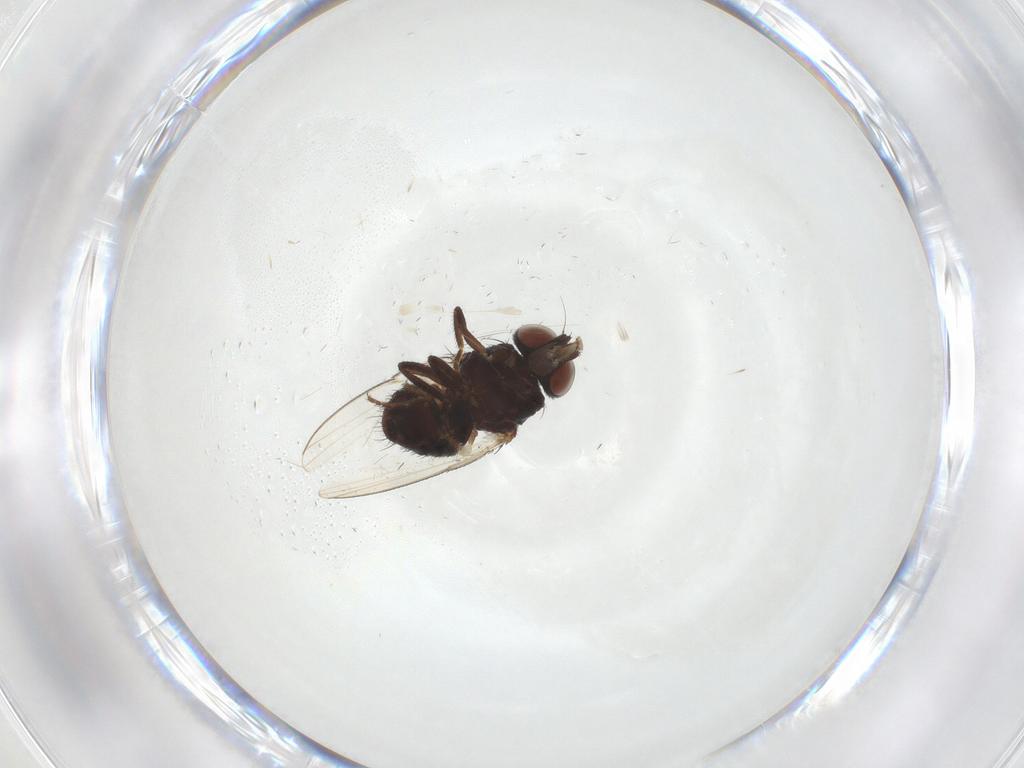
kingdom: Animalia
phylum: Arthropoda
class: Insecta
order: Diptera
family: Milichiidae
